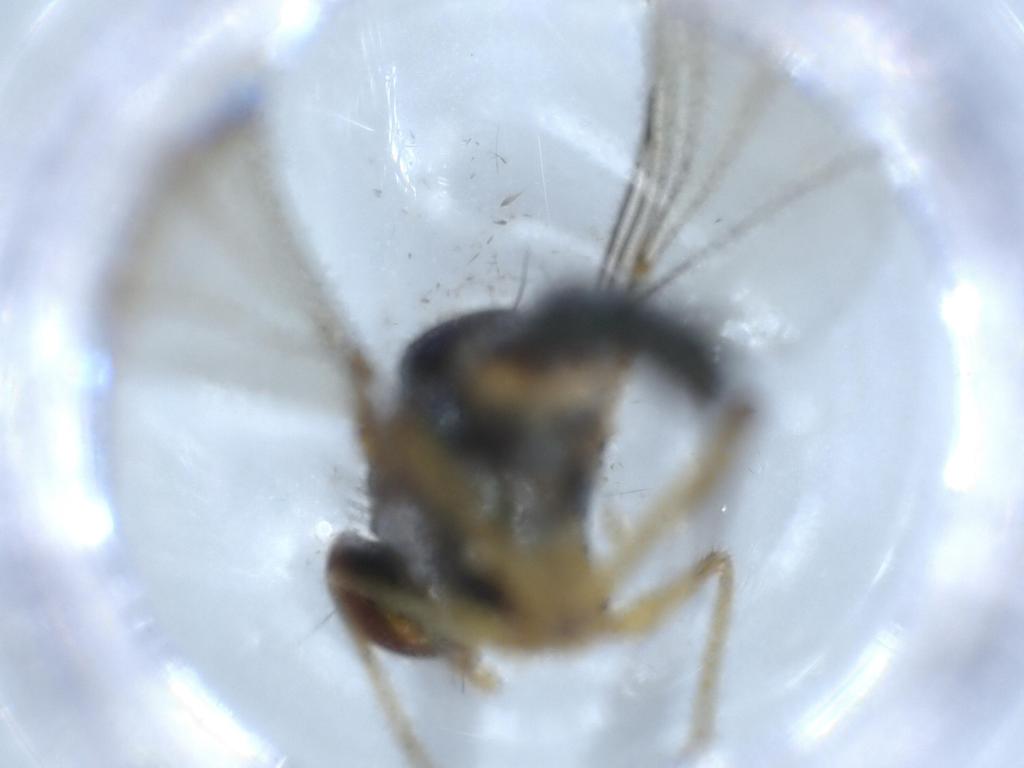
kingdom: Animalia
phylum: Arthropoda
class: Insecta
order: Diptera
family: Dolichopodidae
